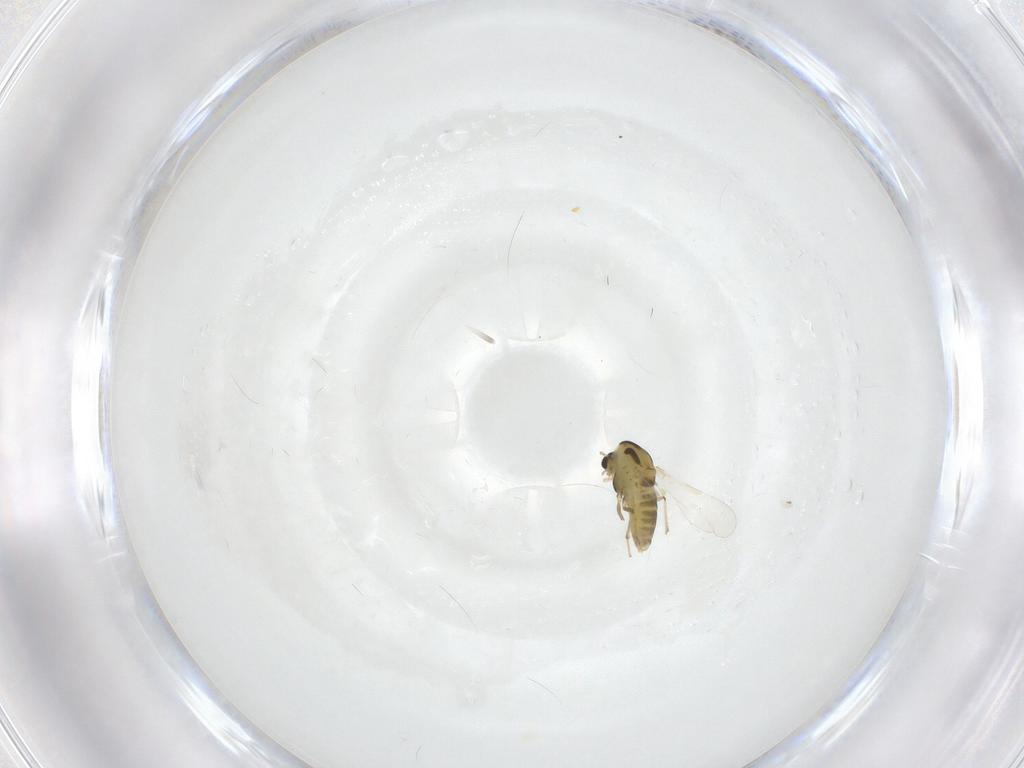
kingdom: Animalia
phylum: Arthropoda
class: Insecta
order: Diptera
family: Chironomidae
